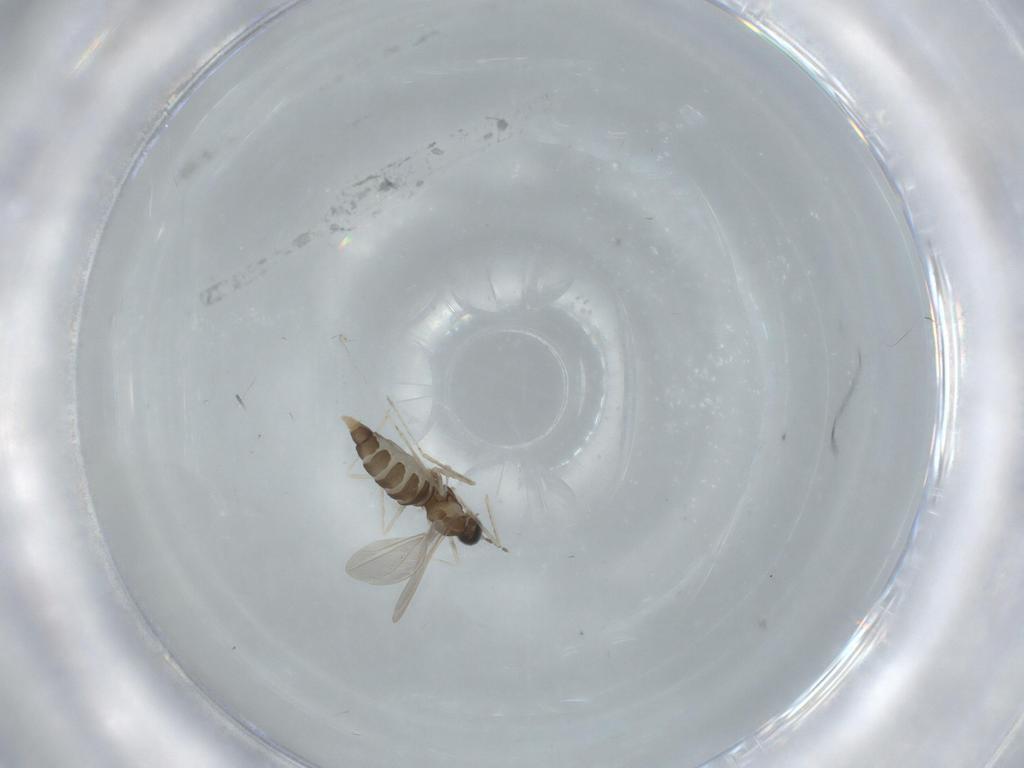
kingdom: Animalia
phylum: Arthropoda
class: Insecta
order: Diptera
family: Cecidomyiidae
